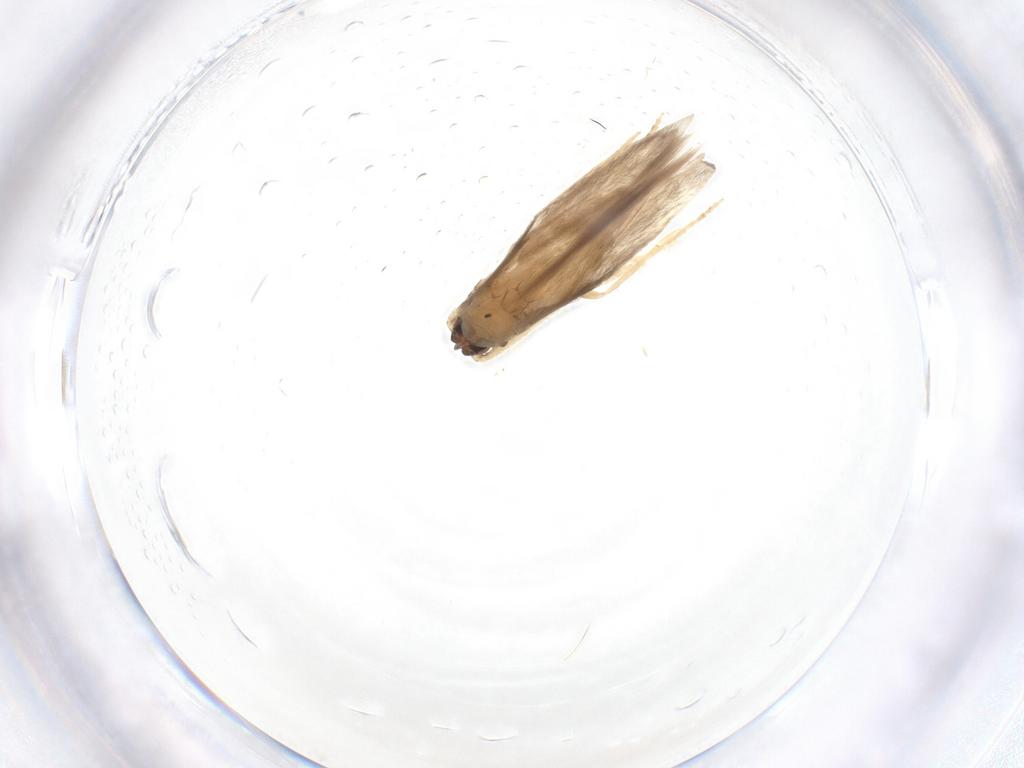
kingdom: Animalia
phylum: Arthropoda
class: Insecta
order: Trichoptera
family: Hydroptilidae
